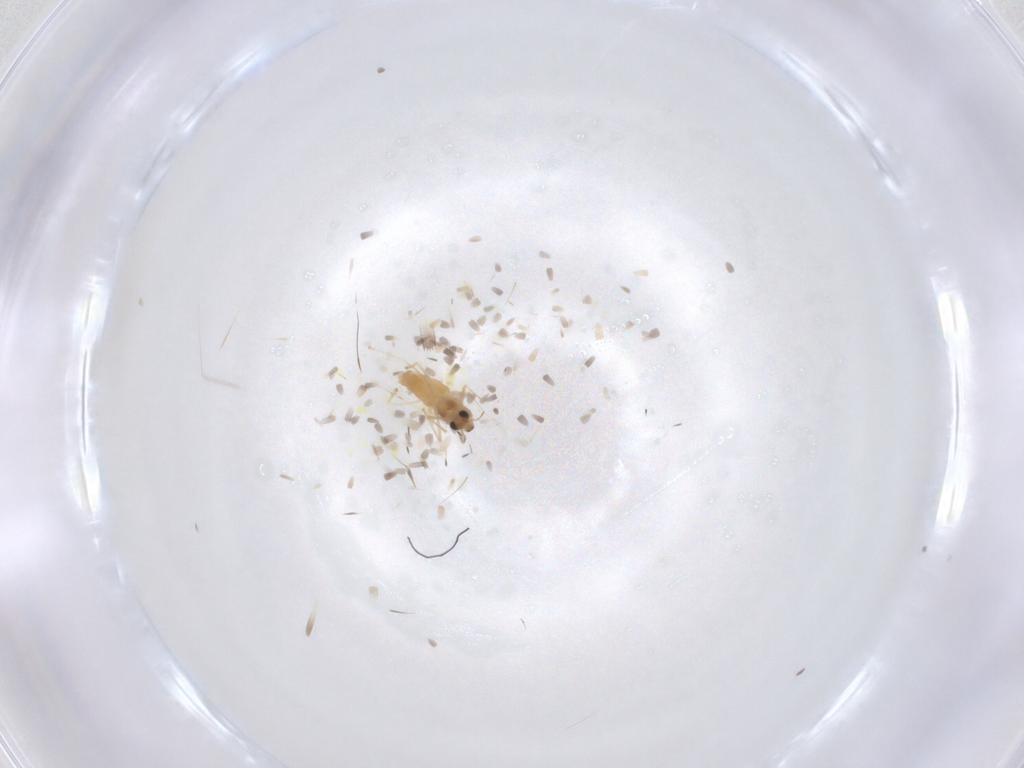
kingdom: Animalia
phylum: Arthropoda
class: Insecta
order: Diptera
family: Chironomidae
